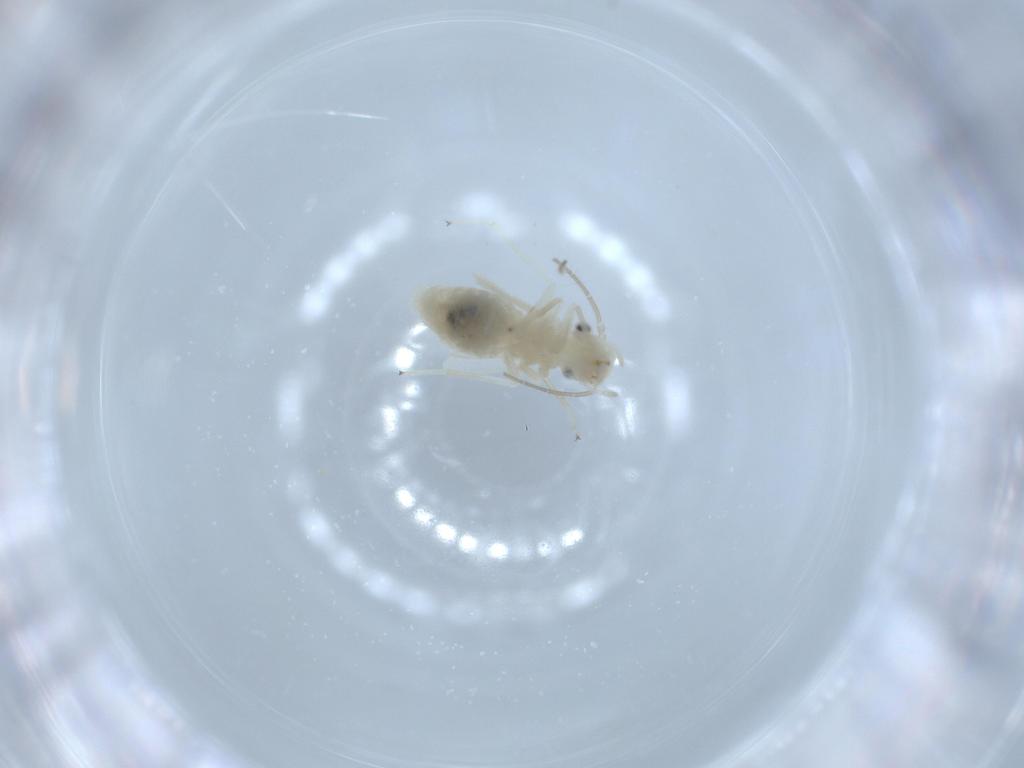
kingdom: Animalia
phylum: Arthropoda
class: Insecta
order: Psocodea
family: Caeciliusidae
